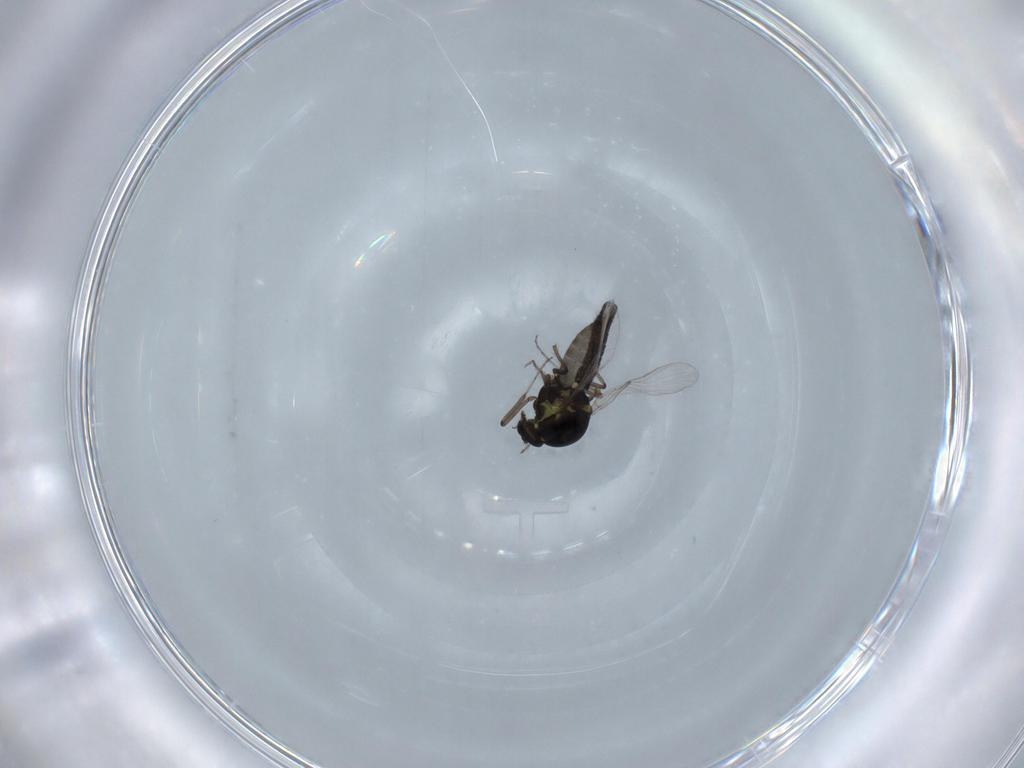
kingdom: Animalia
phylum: Arthropoda
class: Insecta
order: Diptera
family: Ceratopogonidae
